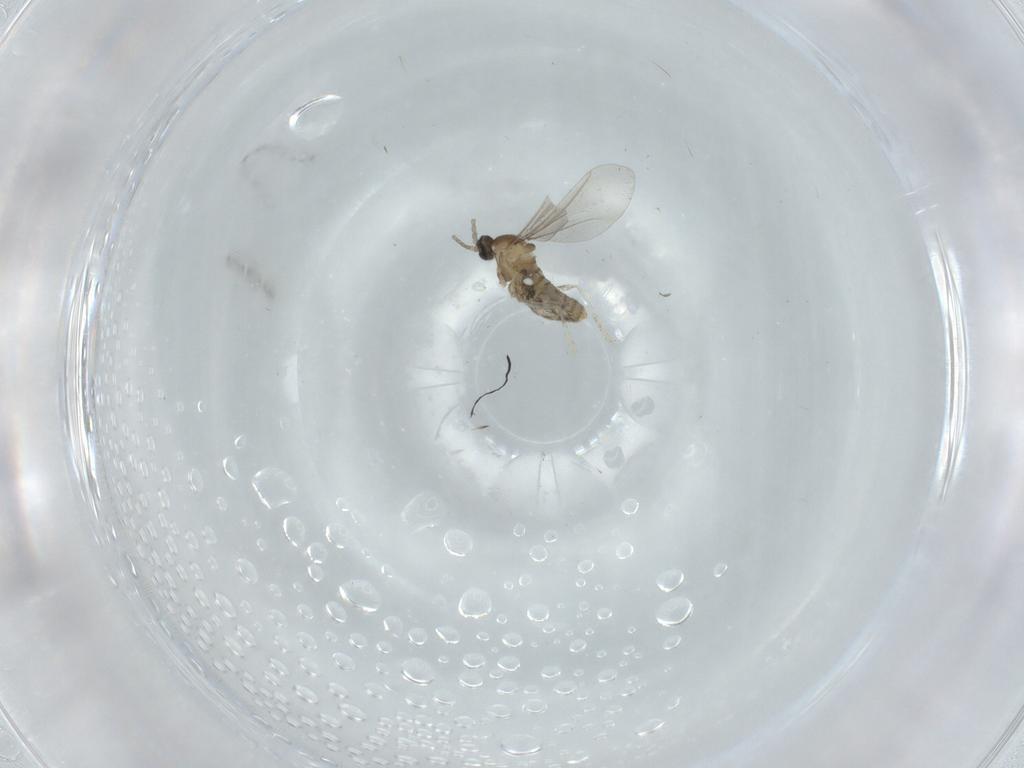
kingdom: Animalia
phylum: Arthropoda
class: Insecta
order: Diptera
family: Cecidomyiidae
